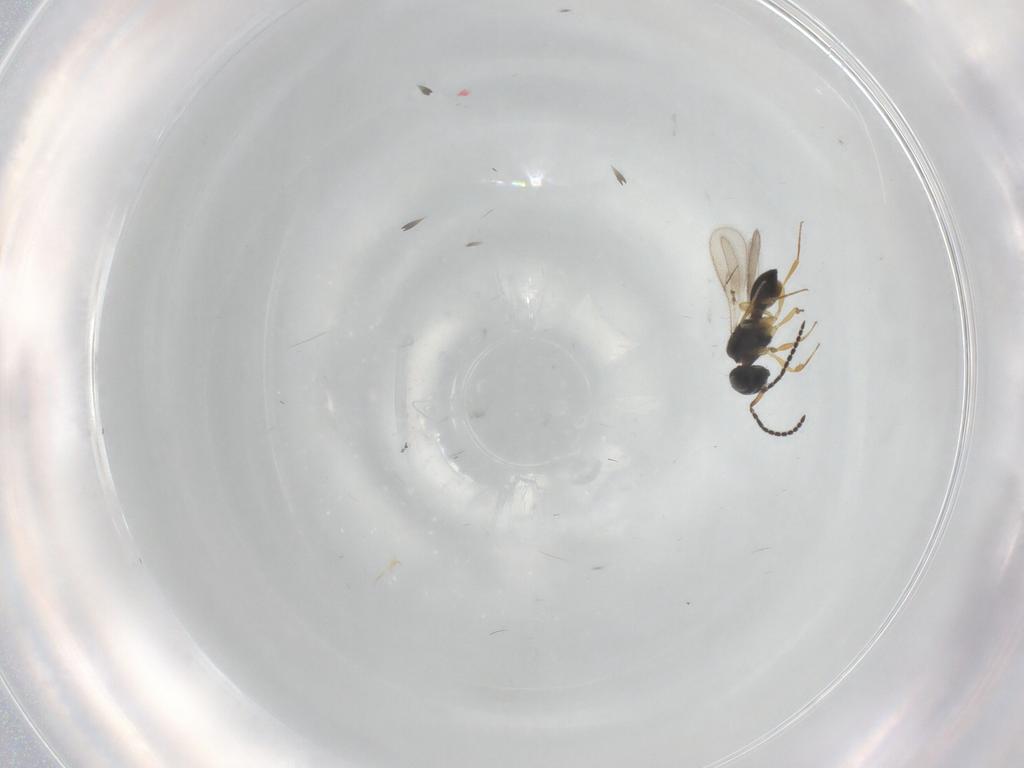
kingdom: Animalia
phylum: Arthropoda
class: Insecta
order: Hymenoptera
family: Scelionidae
